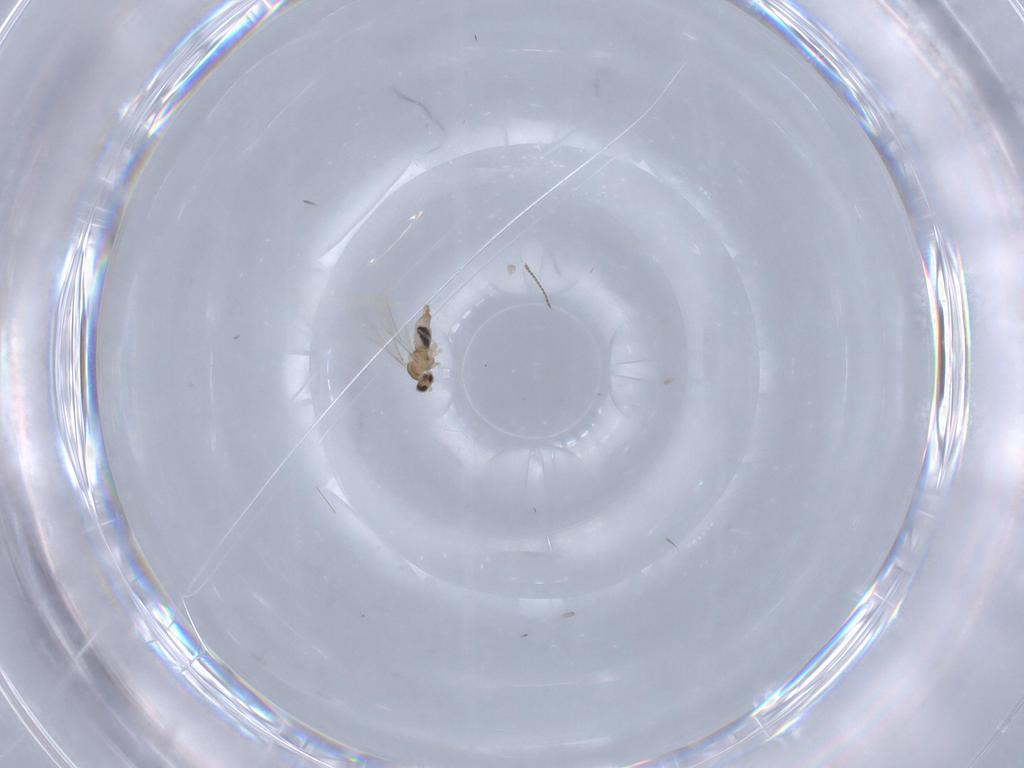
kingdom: Animalia
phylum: Arthropoda
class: Insecta
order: Diptera
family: Cecidomyiidae
